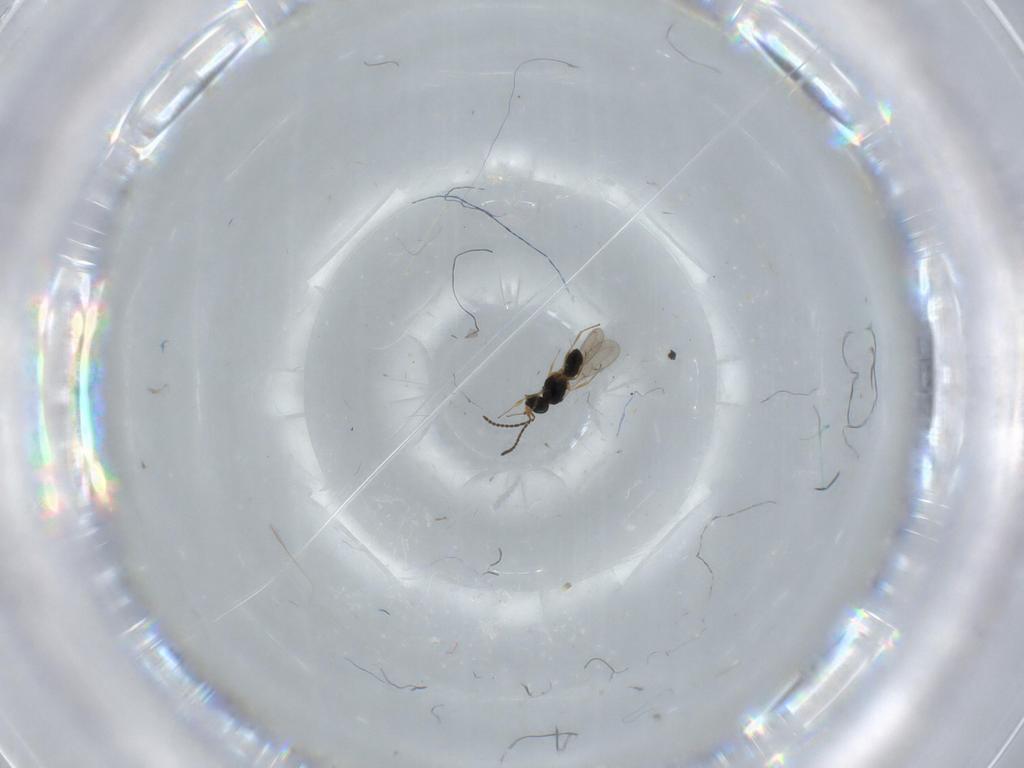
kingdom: Animalia
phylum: Arthropoda
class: Insecta
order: Hymenoptera
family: Scelionidae
